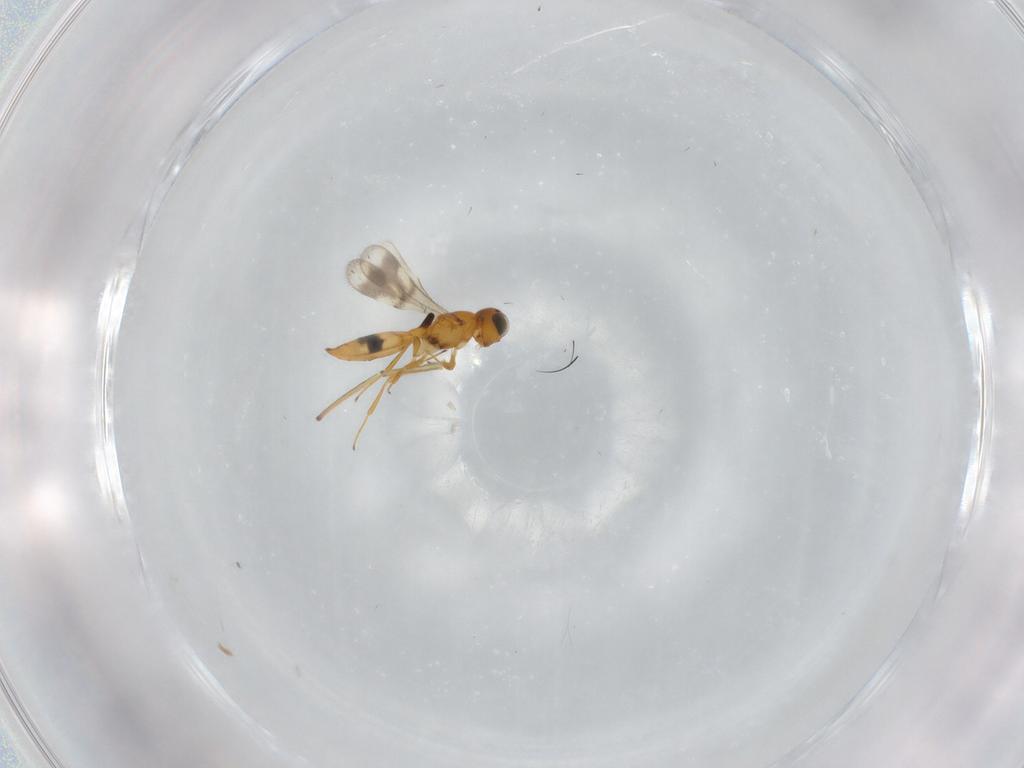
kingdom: Animalia
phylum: Arthropoda
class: Insecta
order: Hymenoptera
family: Scelionidae
